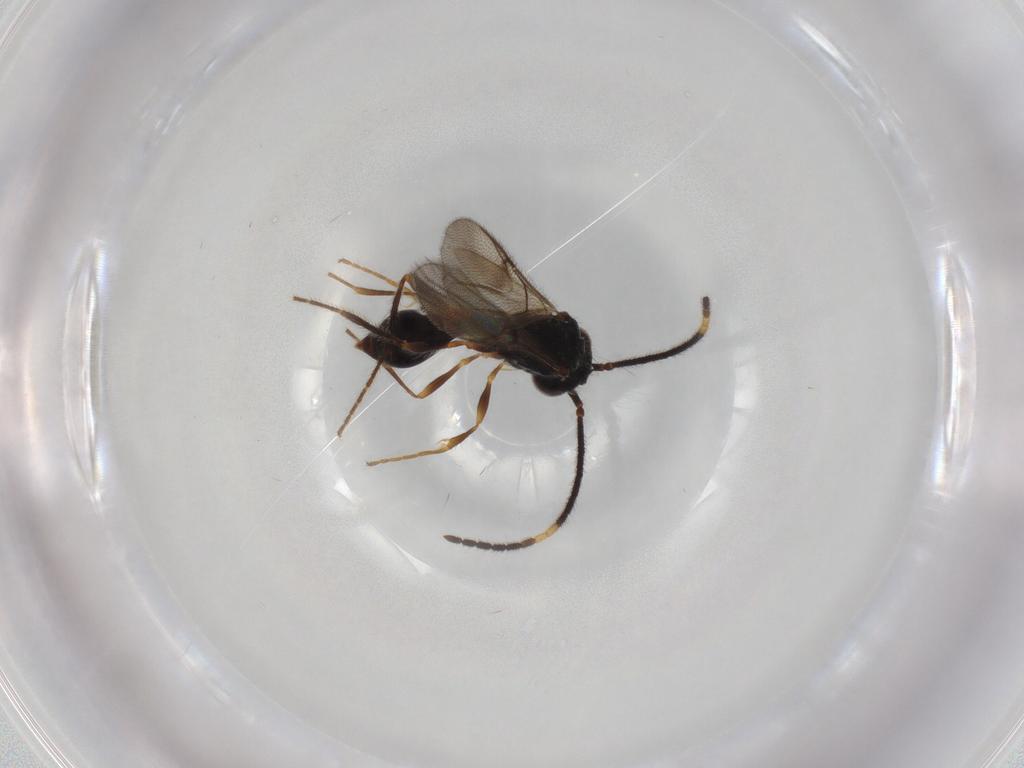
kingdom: Animalia
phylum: Arthropoda
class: Insecta
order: Hymenoptera
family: Diapriidae
